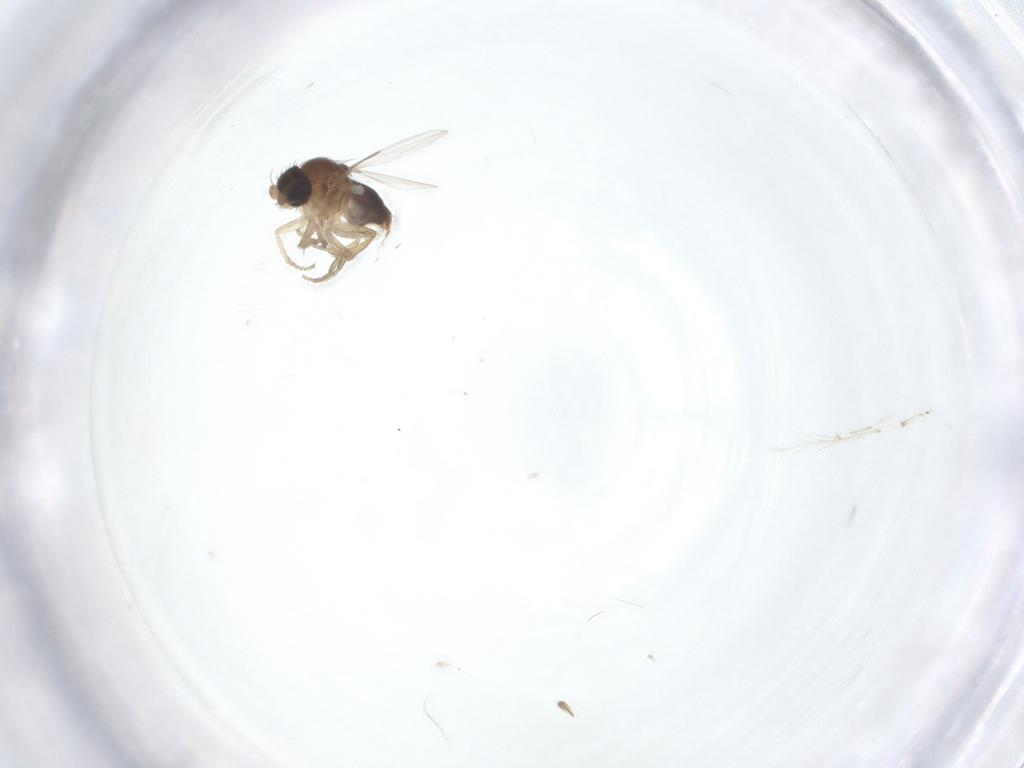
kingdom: Animalia
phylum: Arthropoda
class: Insecta
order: Diptera
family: Phoridae
